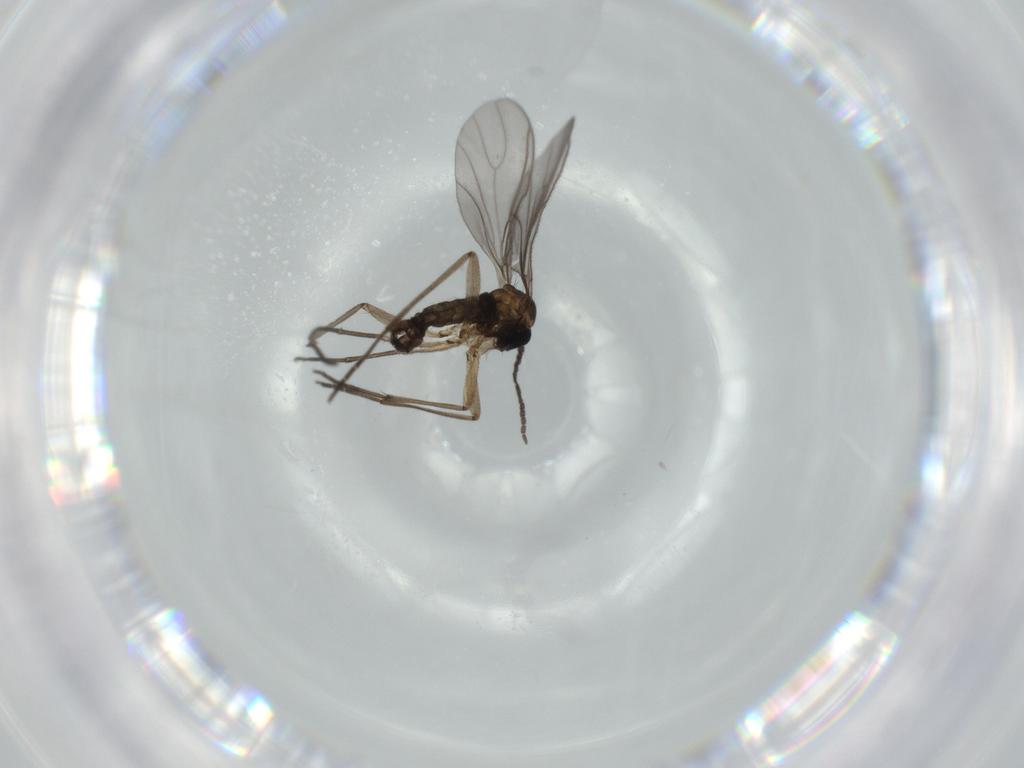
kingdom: Animalia
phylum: Arthropoda
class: Insecta
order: Diptera
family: Sciaridae
